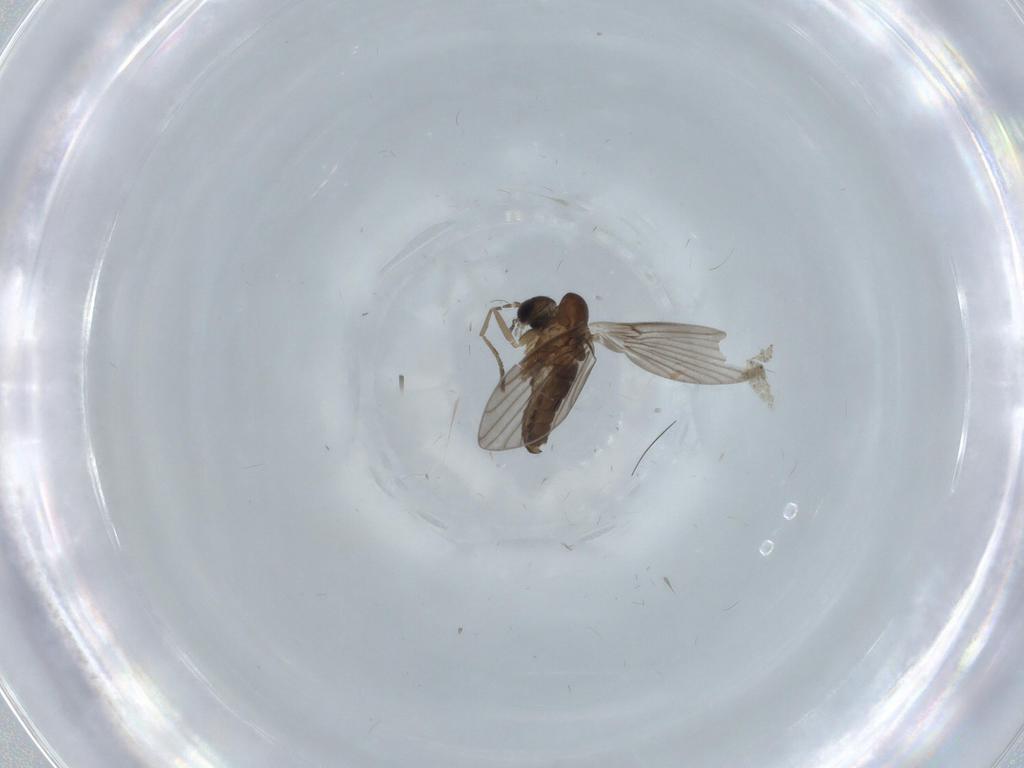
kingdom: Animalia
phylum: Arthropoda
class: Insecta
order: Diptera
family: Psychodidae
